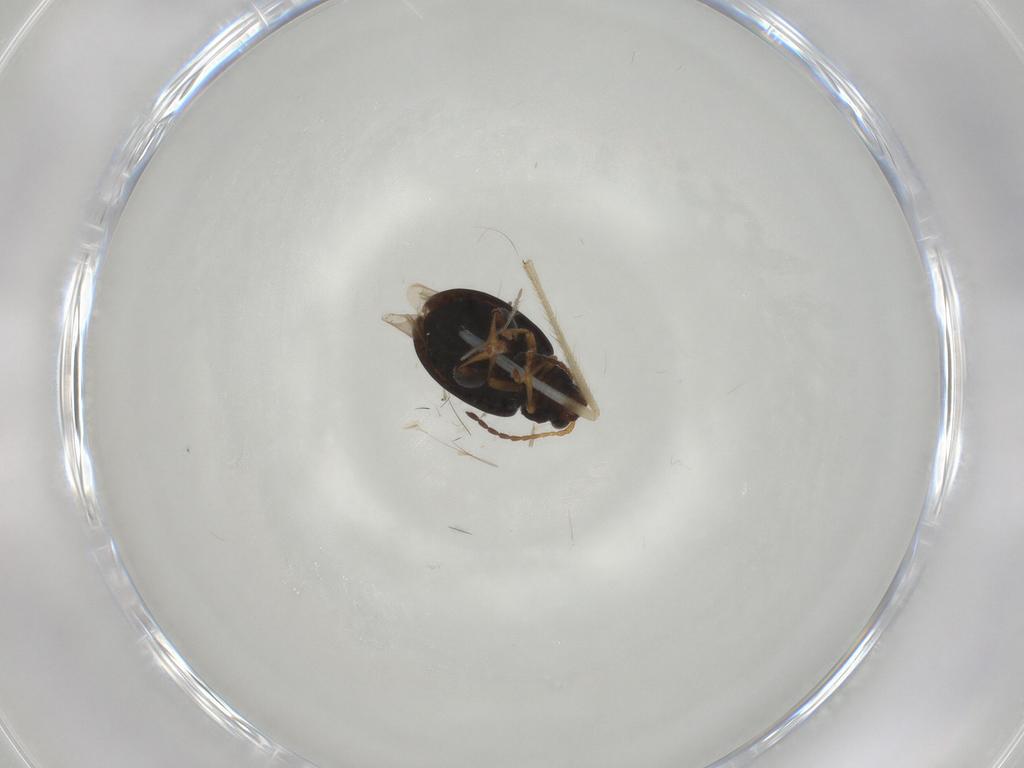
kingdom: Animalia
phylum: Arthropoda
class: Insecta
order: Coleoptera
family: Chrysomelidae
